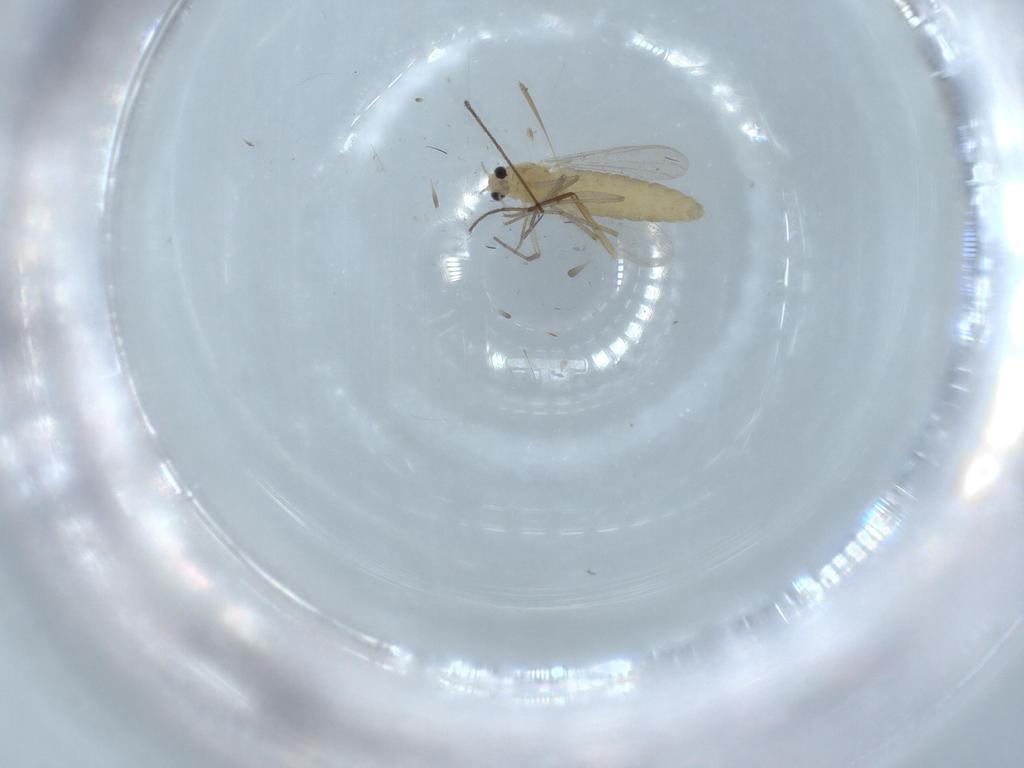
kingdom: Animalia
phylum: Arthropoda
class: Insecta
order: Diptera
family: Chironomidae
